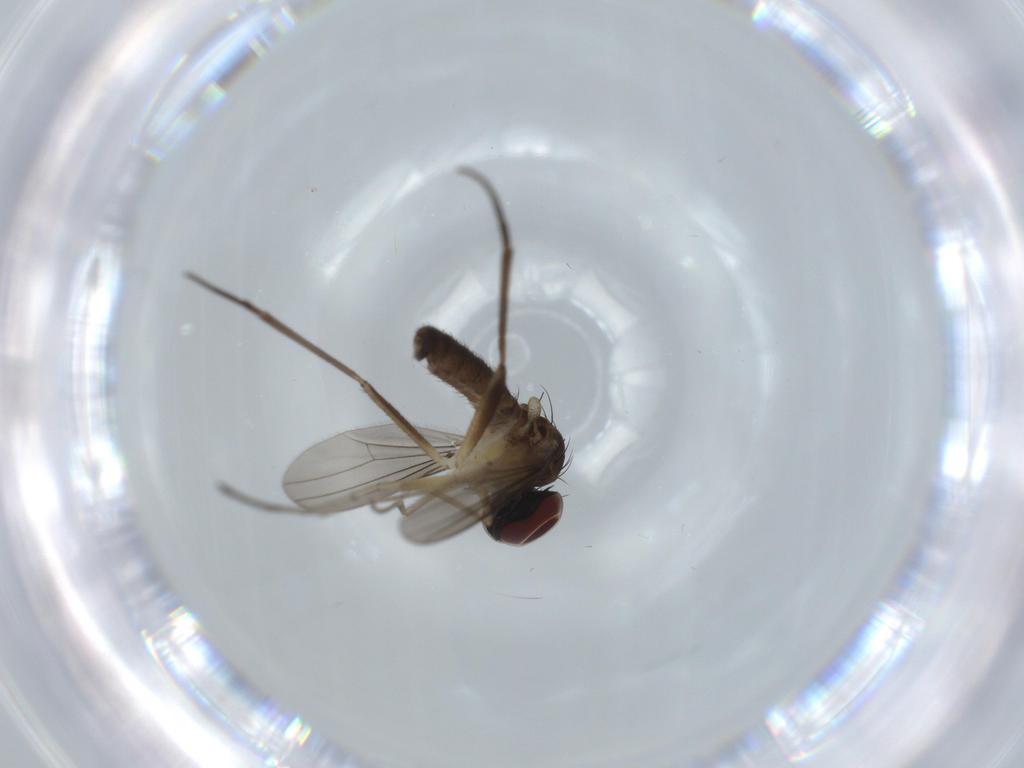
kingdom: Animalia
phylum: Arthropoda
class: Insecta
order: Diptera
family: Dolichopodidae
